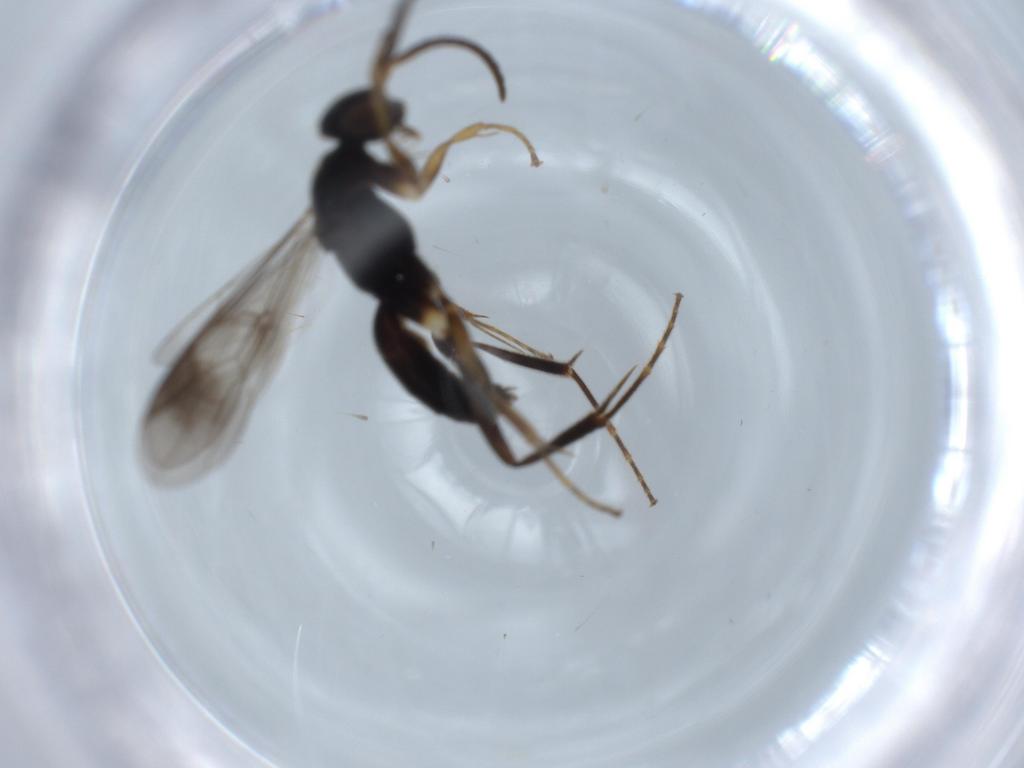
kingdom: Animalia
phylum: Arthropoda
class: Insecta
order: Hymenoptera
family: Pompilidae
